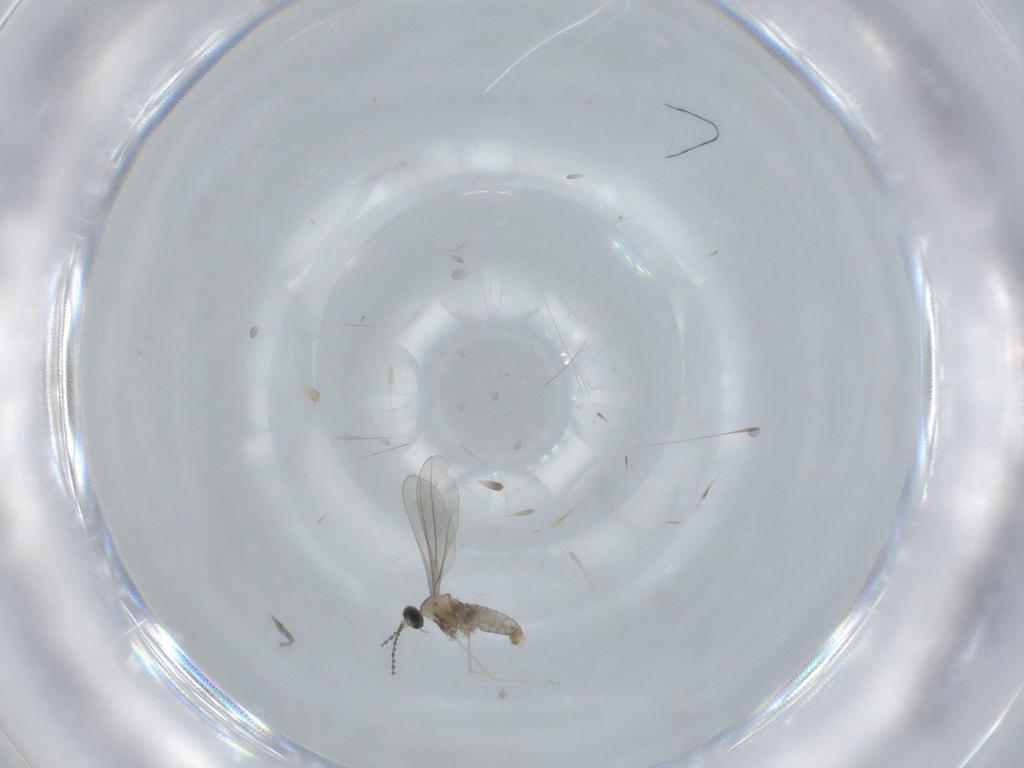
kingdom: Animalia
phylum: Arthropoda
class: Insecta
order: Diptera
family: Cecidomyiidae
